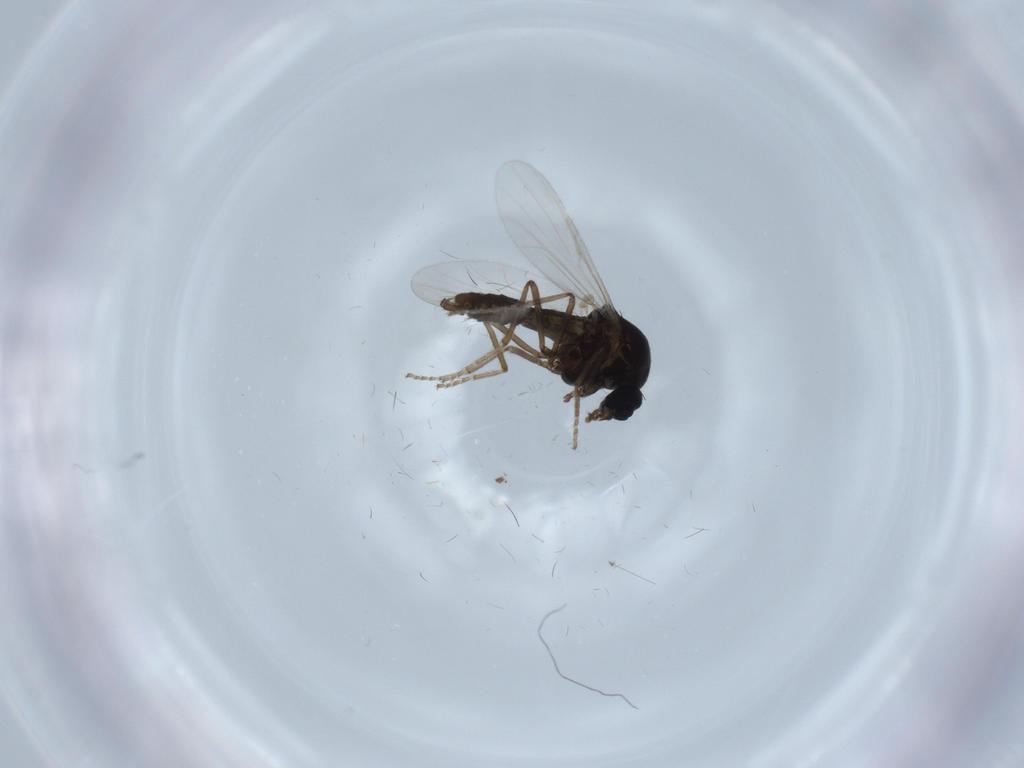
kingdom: Animalia
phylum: Arthropoda
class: Insecta
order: Diptera
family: Ceratopogonidae
